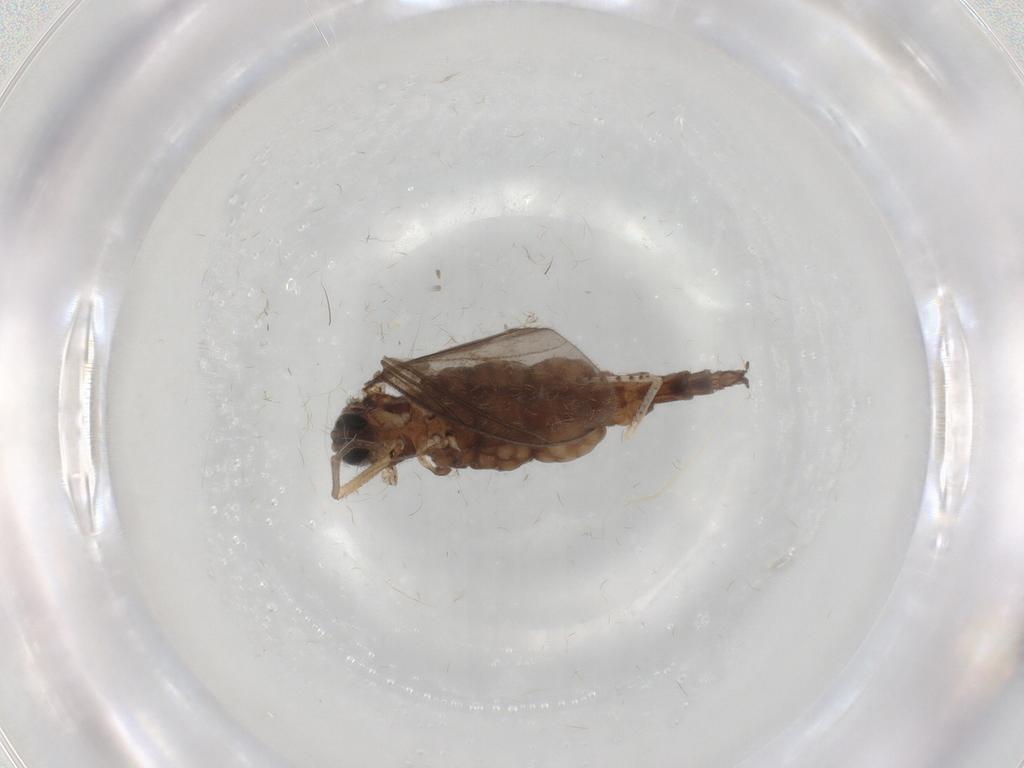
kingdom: Animalia
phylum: Arthropoda
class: Insecta
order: Diptera
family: Sciaridae
